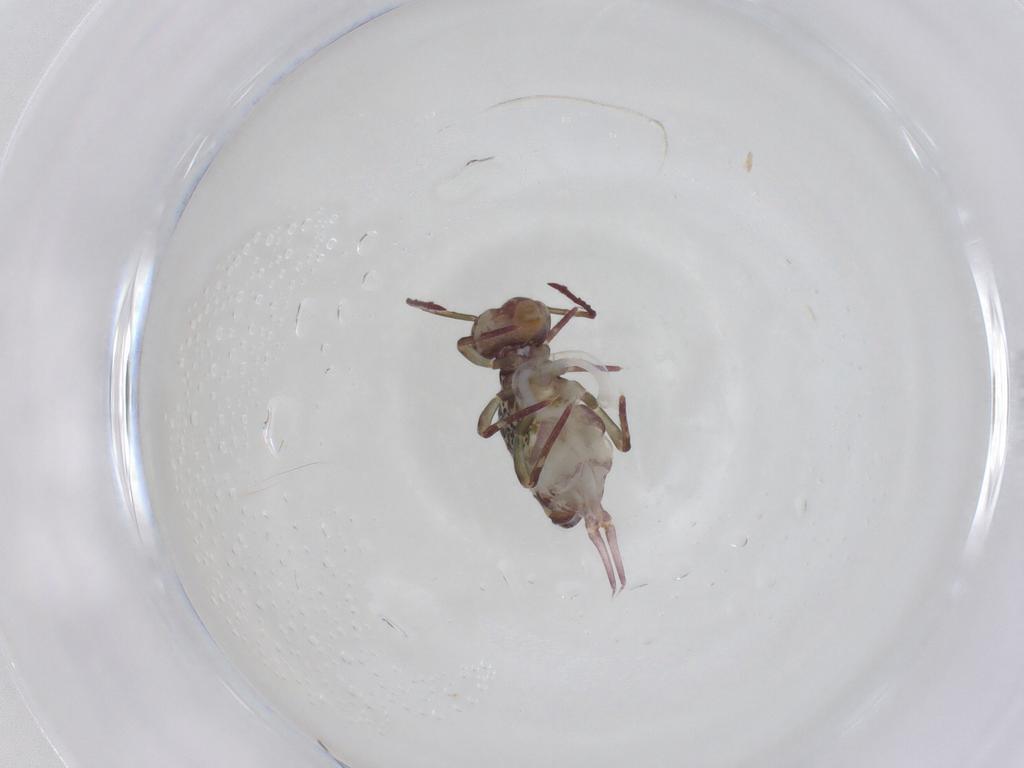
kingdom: Animalia
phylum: Arthropoda
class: Collembola
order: Symphypleona
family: Dicyrtomidae
